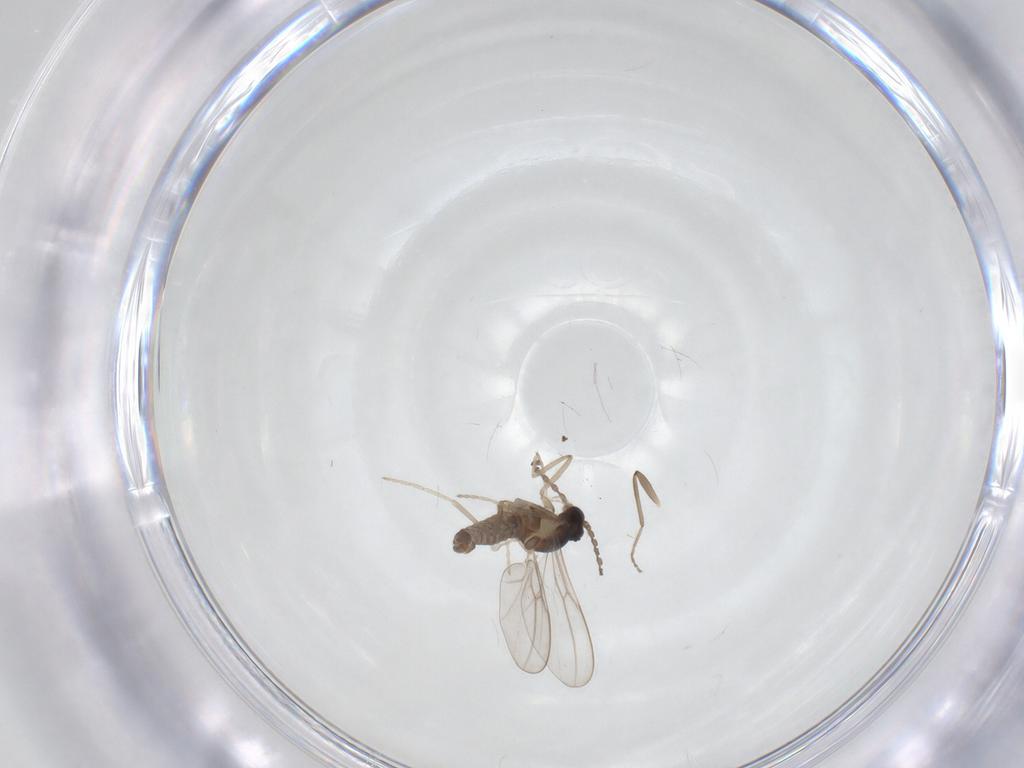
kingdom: Animalia
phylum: Arthropoda
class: Insecta
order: Diptera
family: Cecidomyiidae
